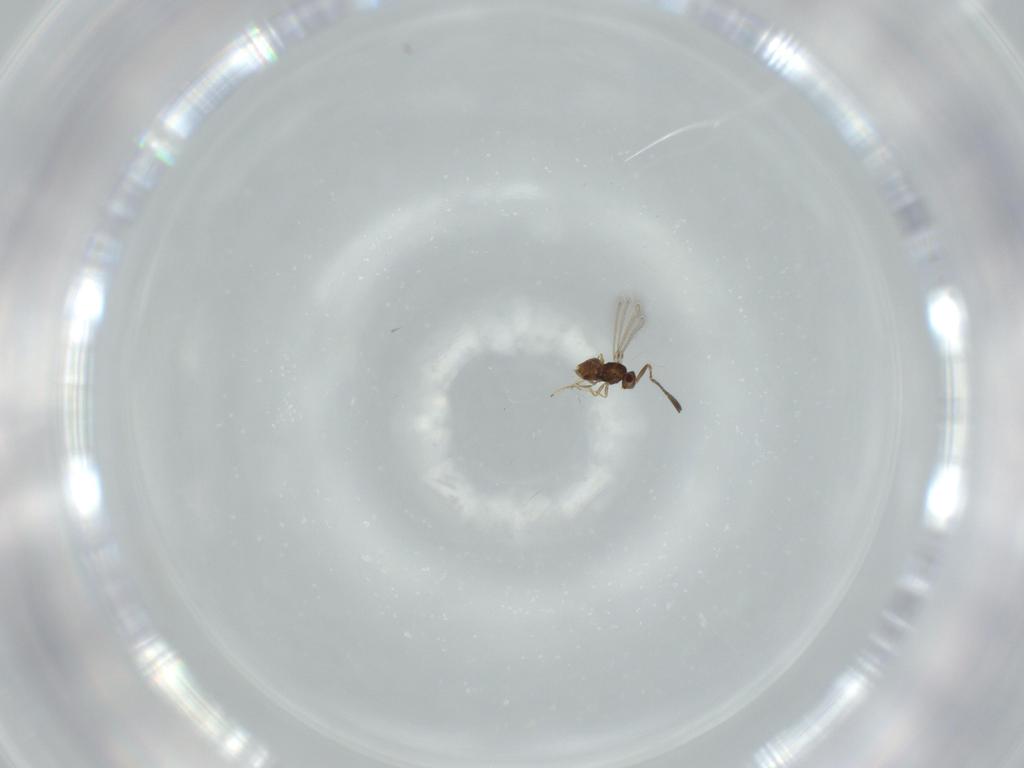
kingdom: Animalia
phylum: Arthropoda
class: Insecta
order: Hymenoptera
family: Mymaridae
